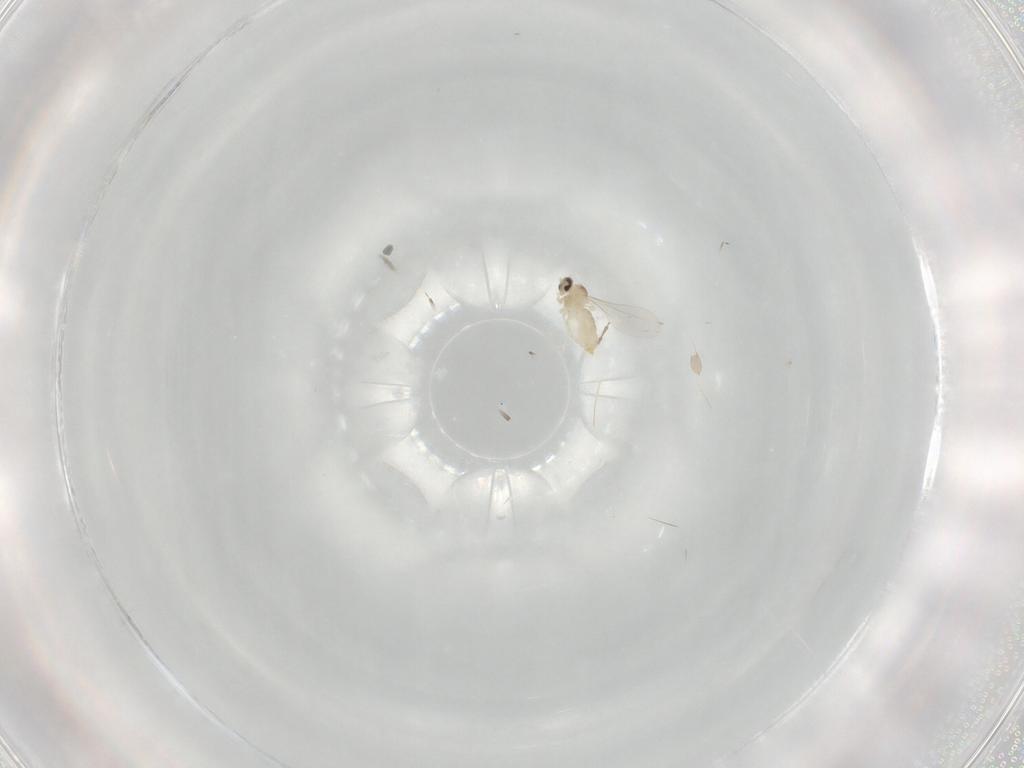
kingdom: Animalia
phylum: Arthropoda
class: Insecta
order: Diptera
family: Cecidomyiidae
